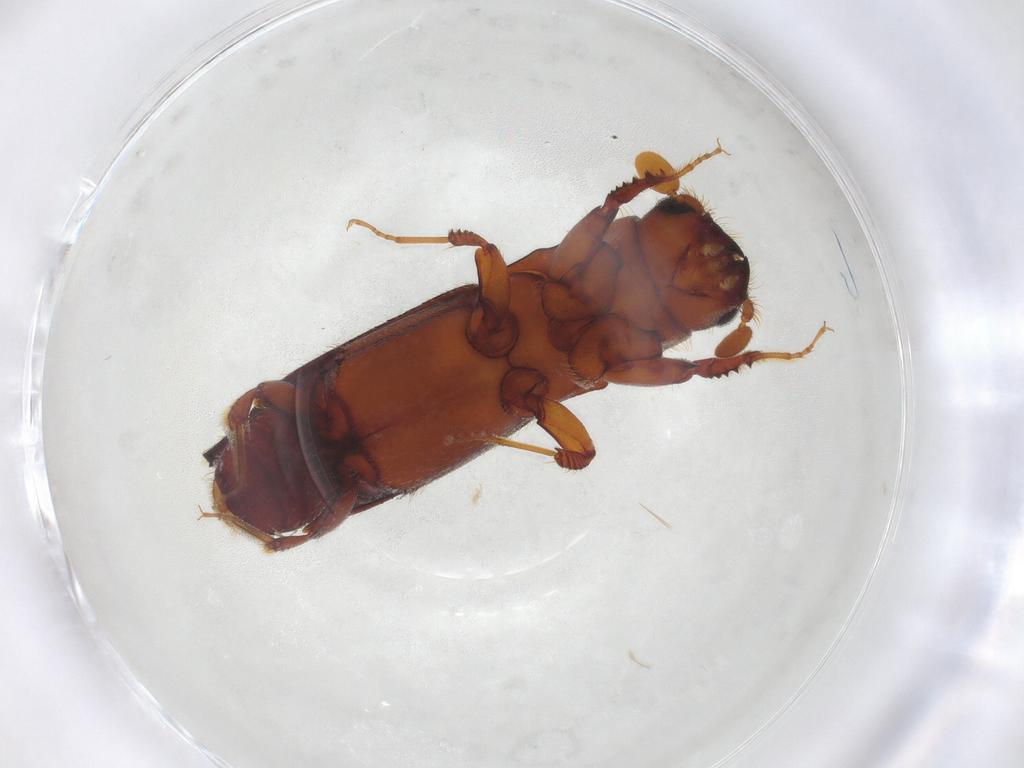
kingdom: Animalia
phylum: Arthropoda
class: Insecta
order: Coleoptera
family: Curculionidae
